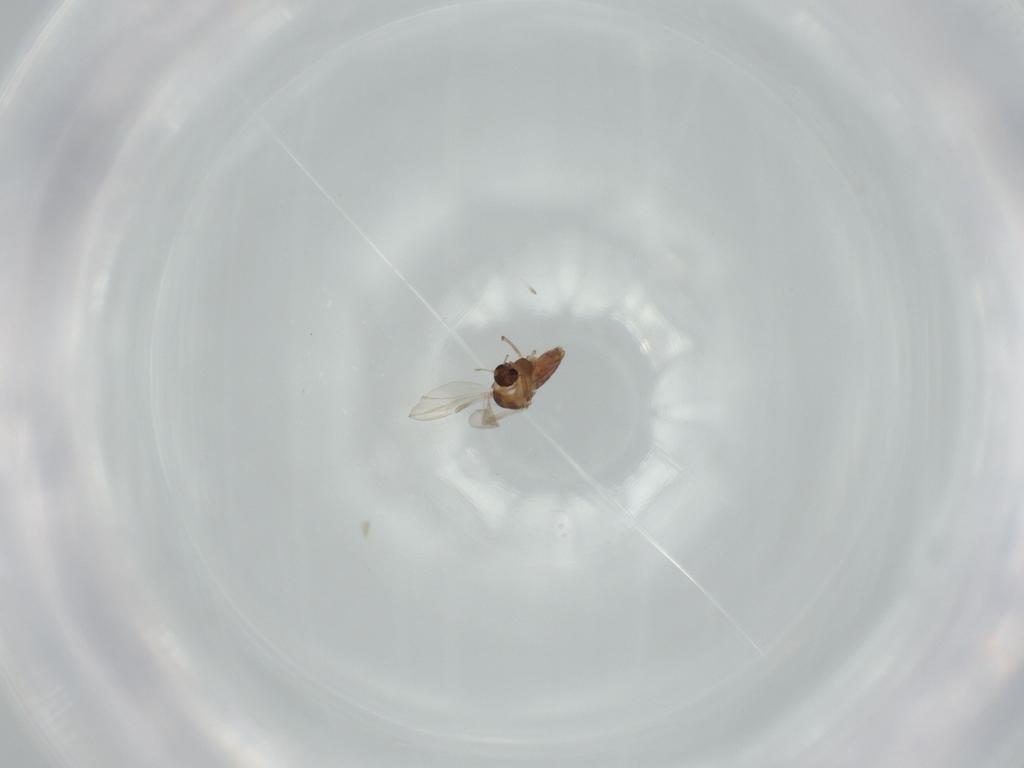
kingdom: Animalia
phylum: Arthropoda
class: Insecta
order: Diptera
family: Chironomidae
